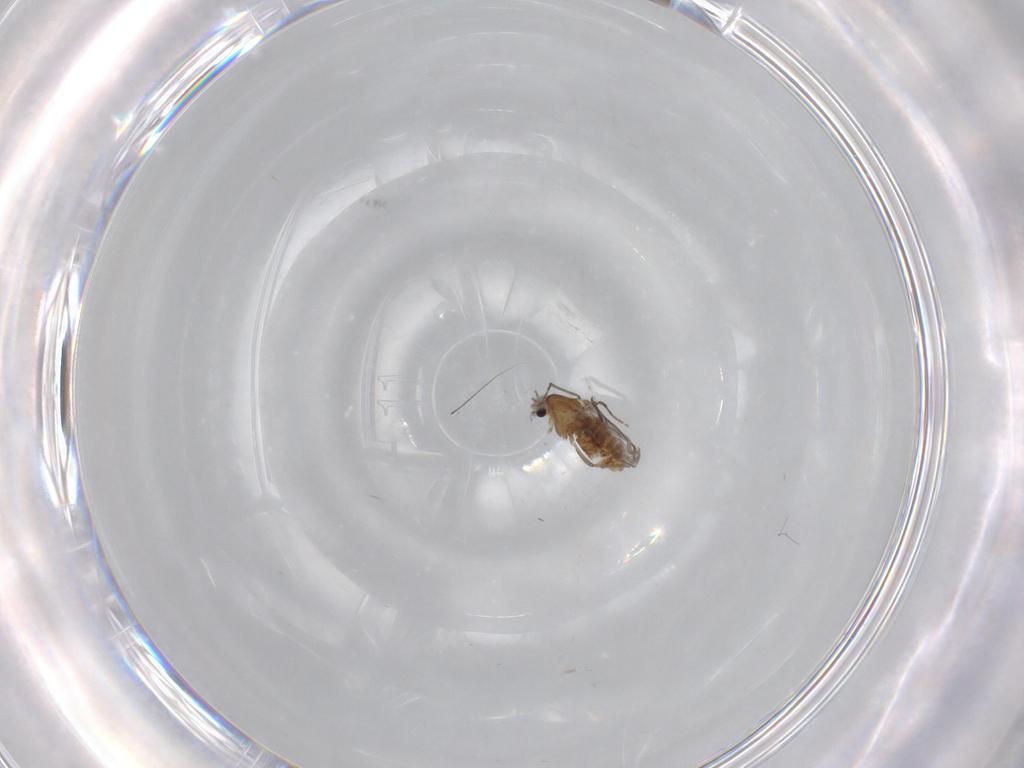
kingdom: Animalia
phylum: Arthropoda
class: Insecta
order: Diptera
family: Chironomidae
